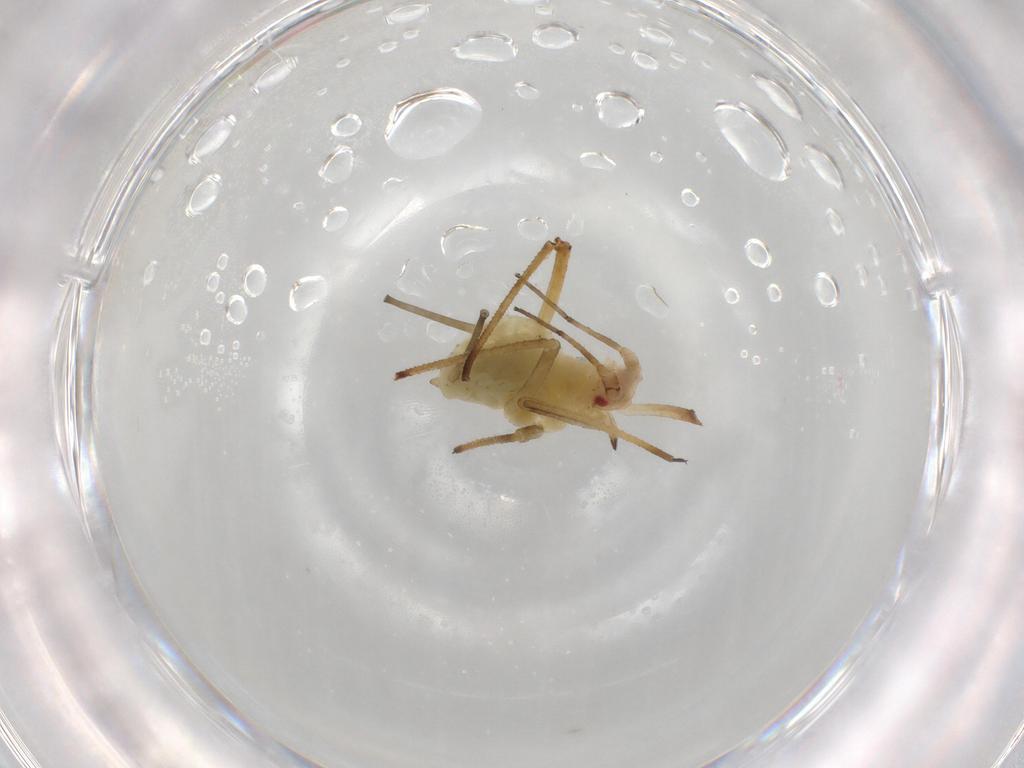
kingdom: Animalia
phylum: Arthropoda
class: Insecta
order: Hemiptera
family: Aphididae
